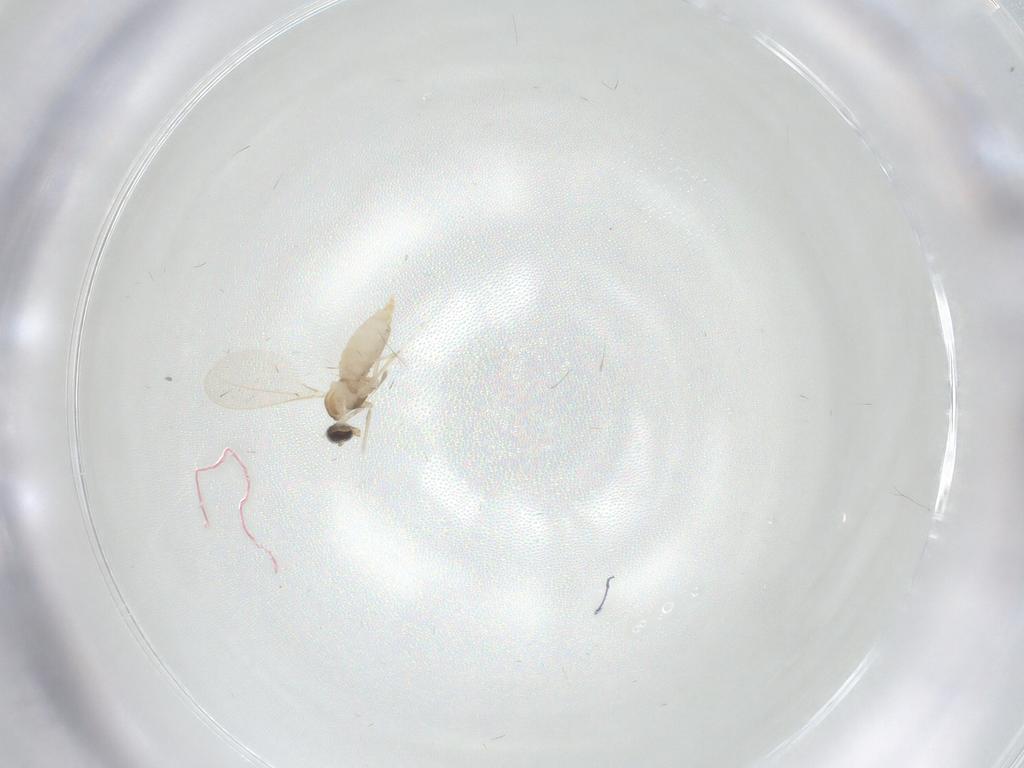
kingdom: Animalia
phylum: Arthropoda
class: Insecta
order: Diptera
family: Cecidomyiidae
